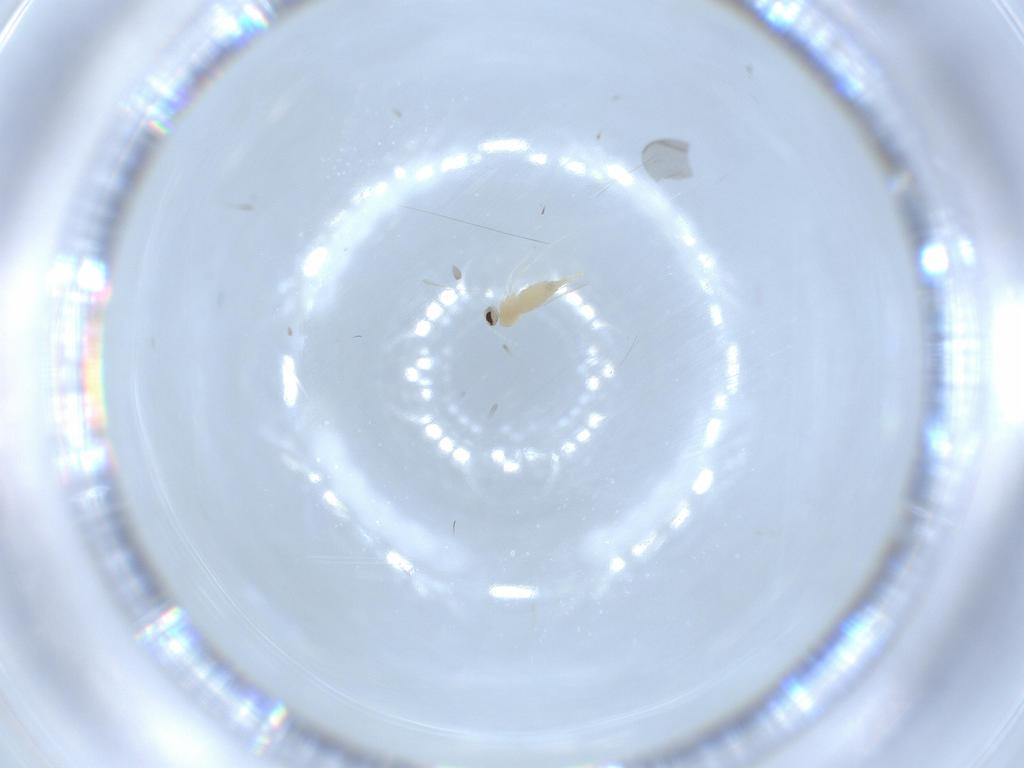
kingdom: Animalia
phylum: Arthropoda
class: Insecta
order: Diptera
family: Cecidomyiidae
